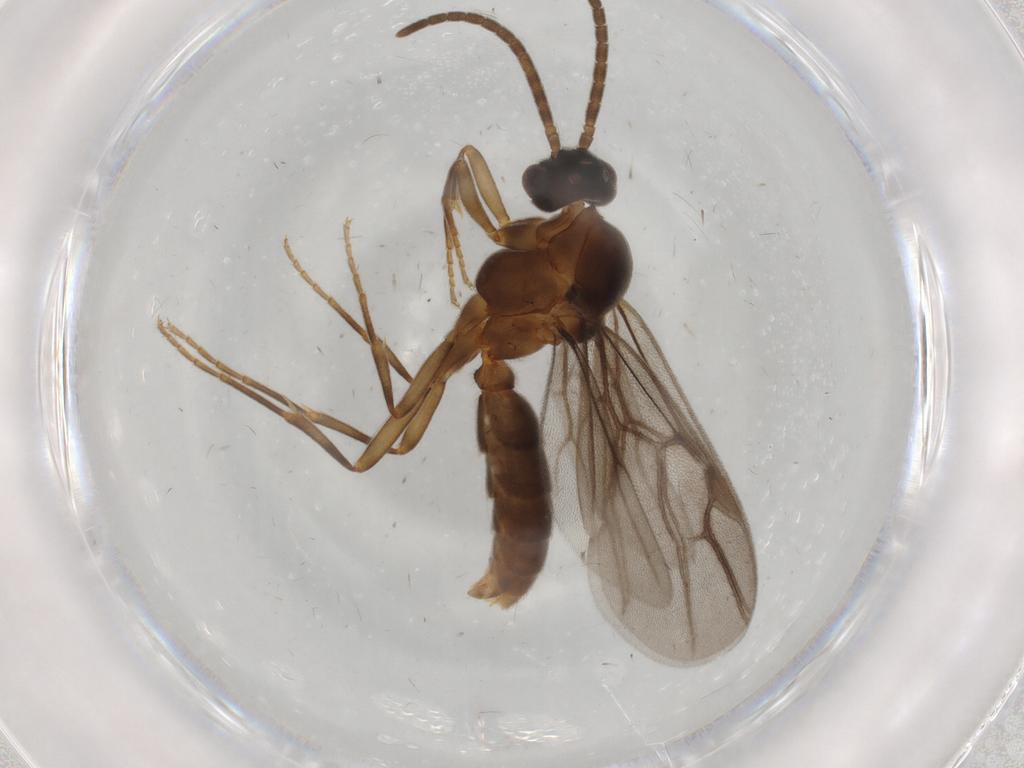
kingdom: Animalia
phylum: Arthropoda
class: Insecta
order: Hymenoptera
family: Formicidae
